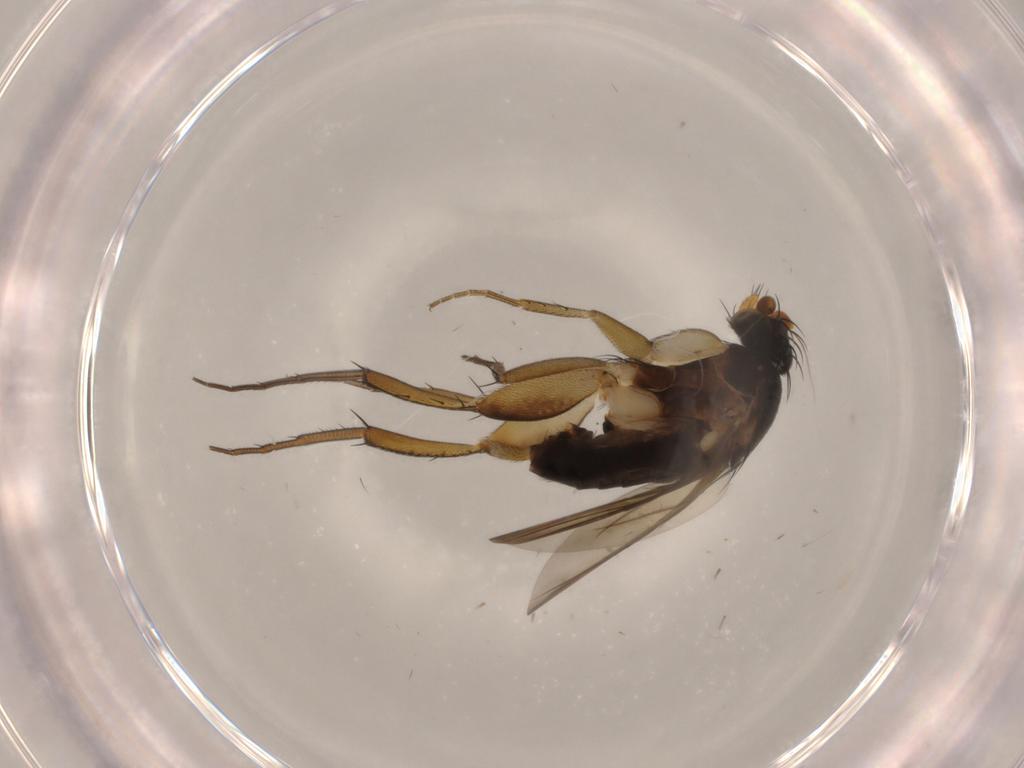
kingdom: Animalia
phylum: Arthropoda
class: Insecta
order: Diptera
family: Phoridae
